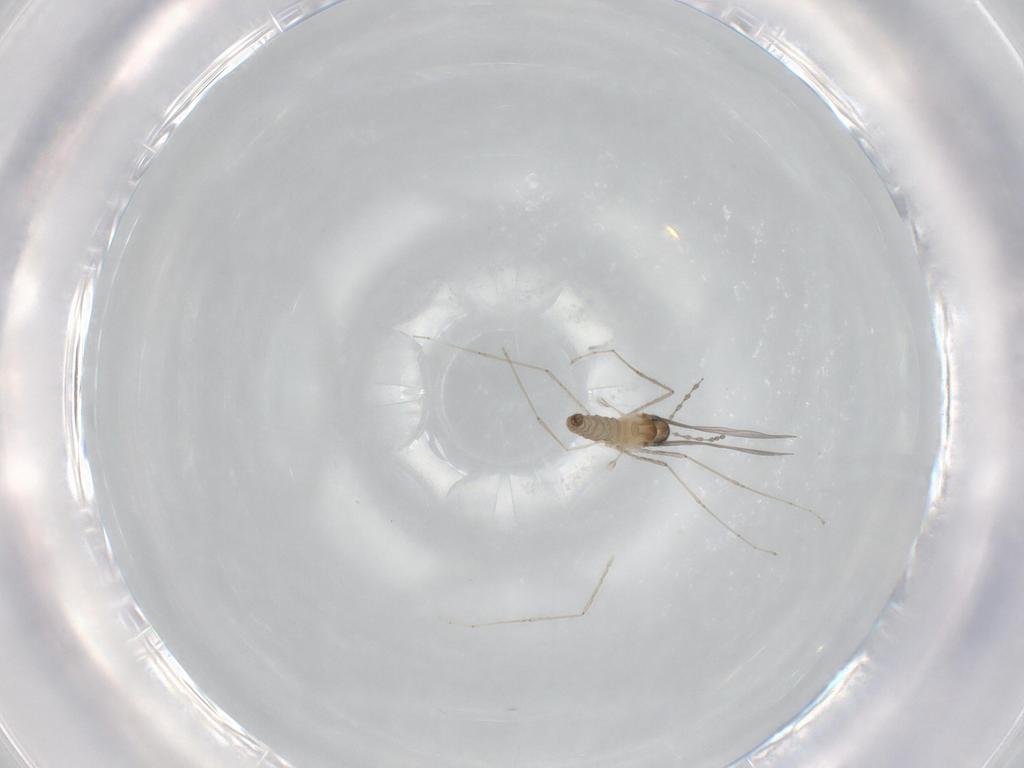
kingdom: Animalia
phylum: Arthropoda
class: Insecta
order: Diptera
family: Cecidomyiidae
